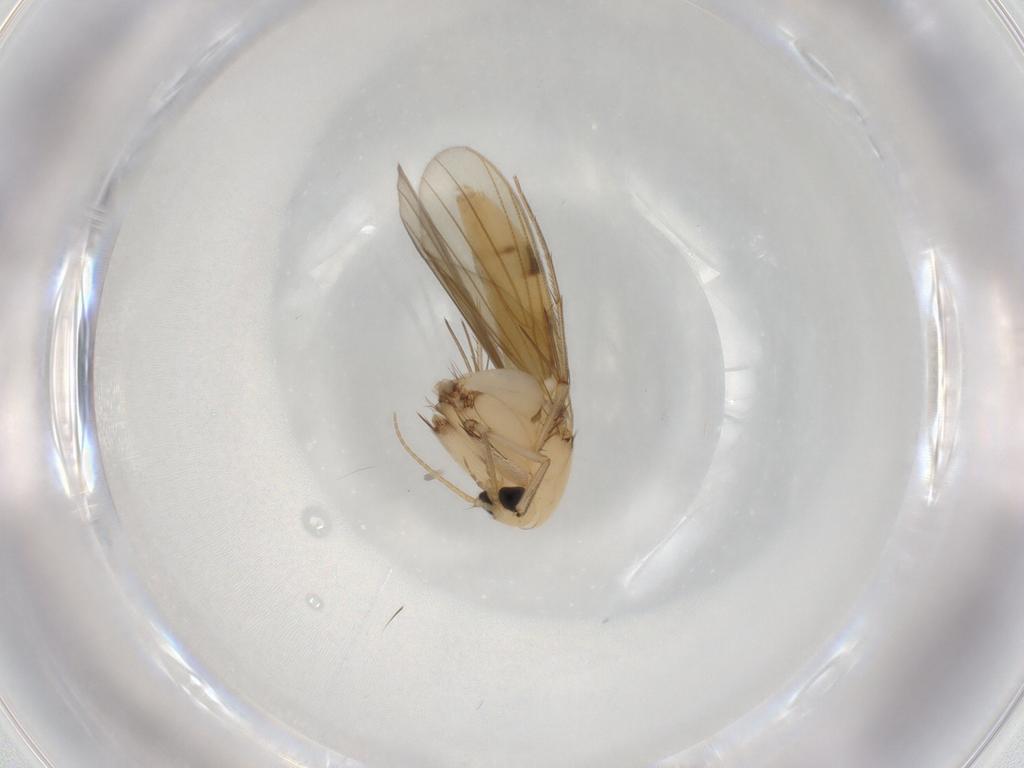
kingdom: Animalia
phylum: Arthropoda
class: Insecta
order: Diptera
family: Mycetophilidae
